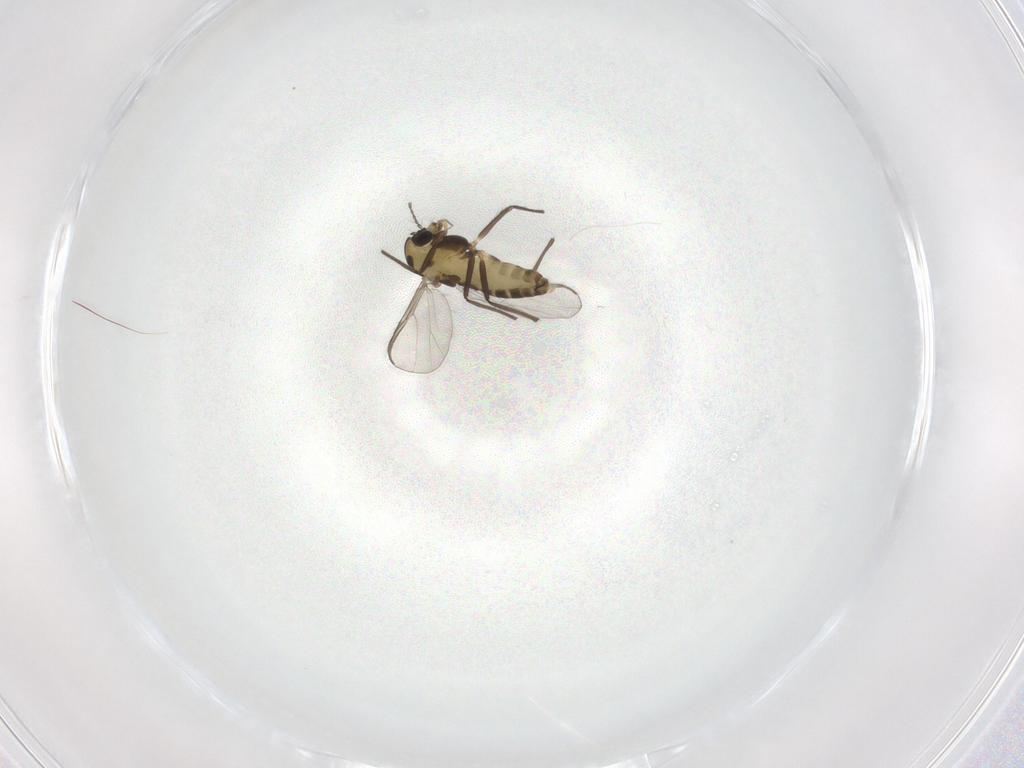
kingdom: Animalia
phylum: Arthropoda
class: Insecta
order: Diptera
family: Chironomidae
